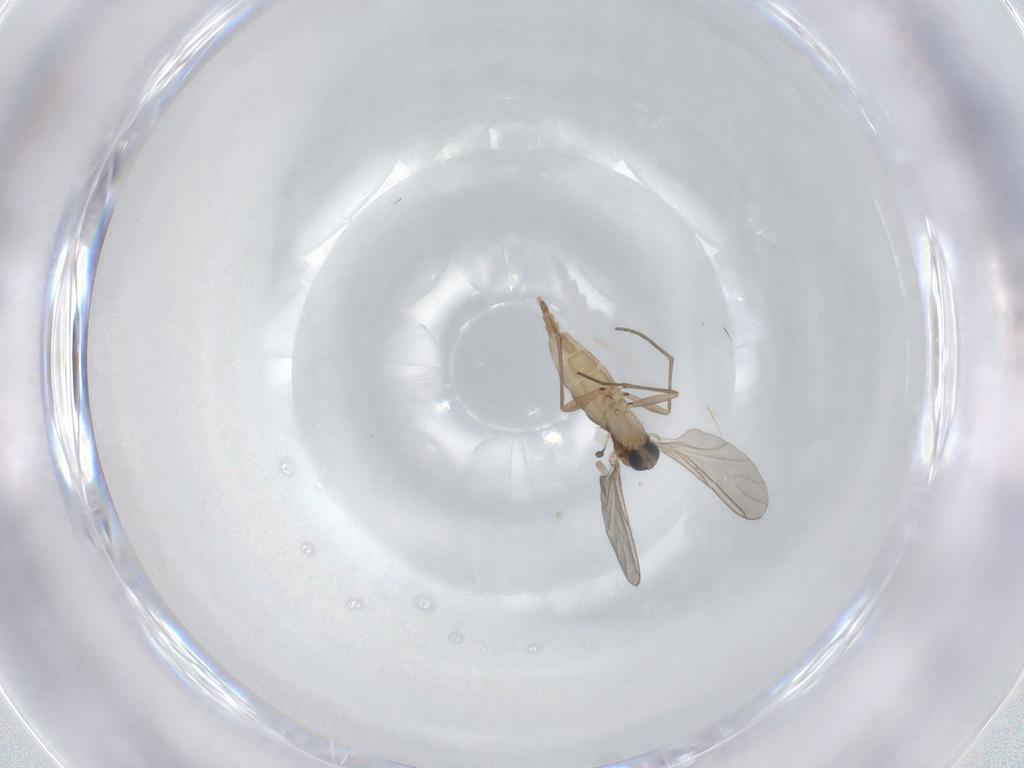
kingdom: Animalia
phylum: Arthropoda
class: Insecta
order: Diptera
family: Sciaridae
